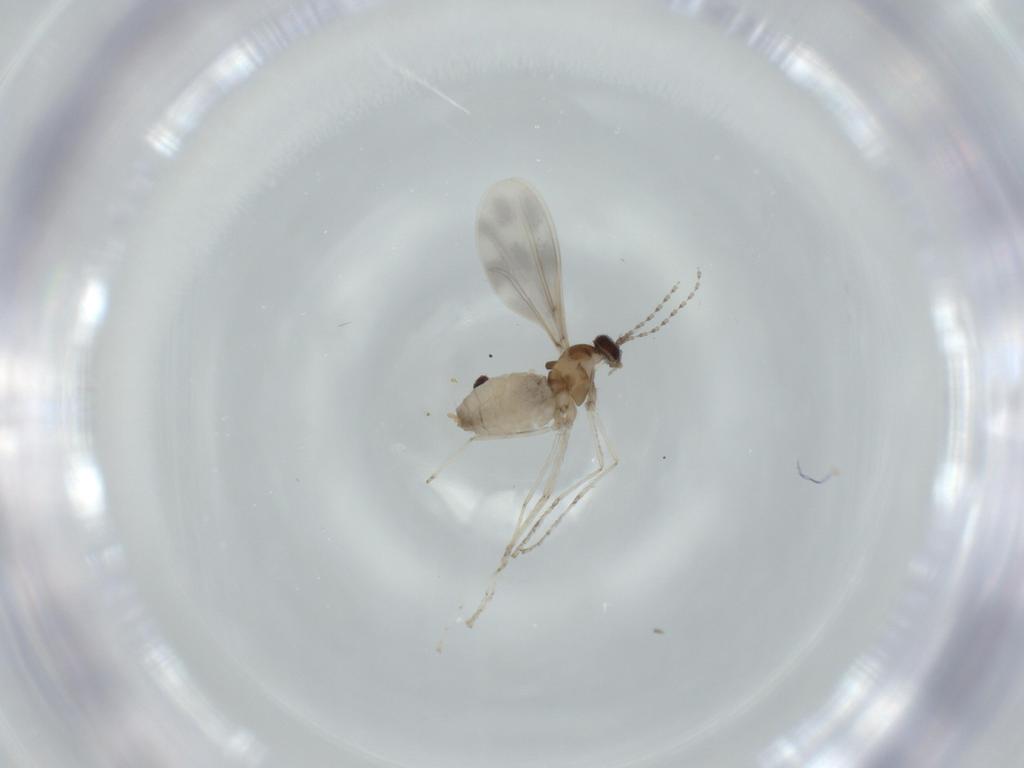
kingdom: Animalia
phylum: Arthropoda
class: Insecta
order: Diptera
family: Cecidomyiidae
